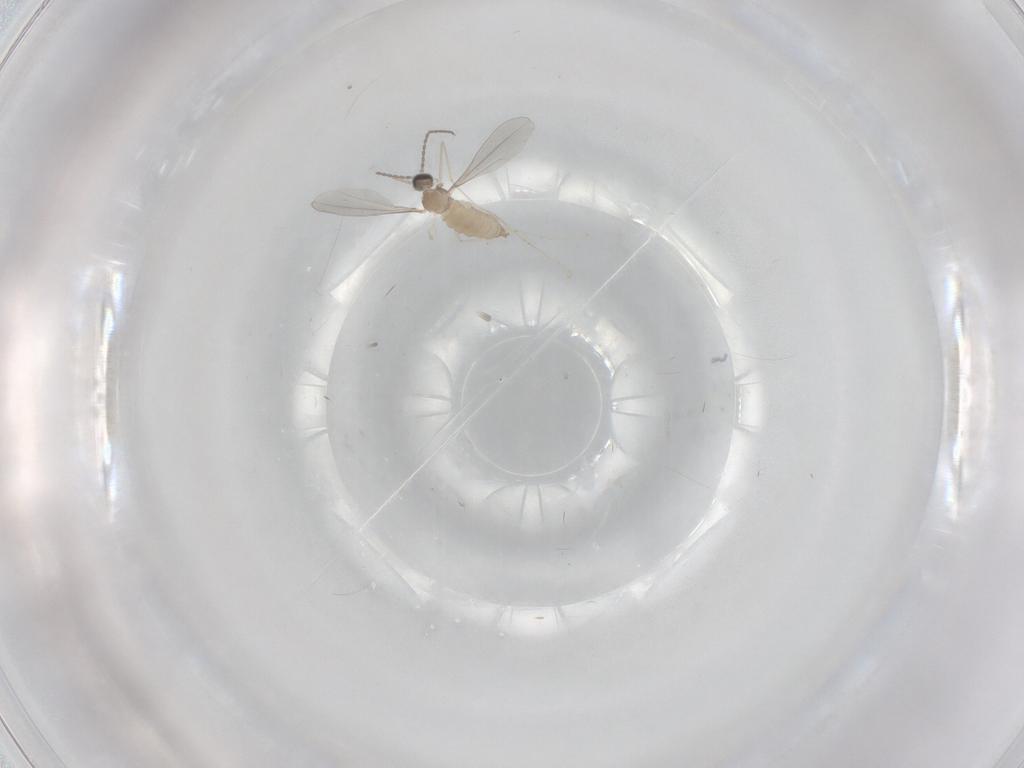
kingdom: Animalia
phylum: Arthropoda
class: Insecta
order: Diptera
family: Cecidomyiidae
